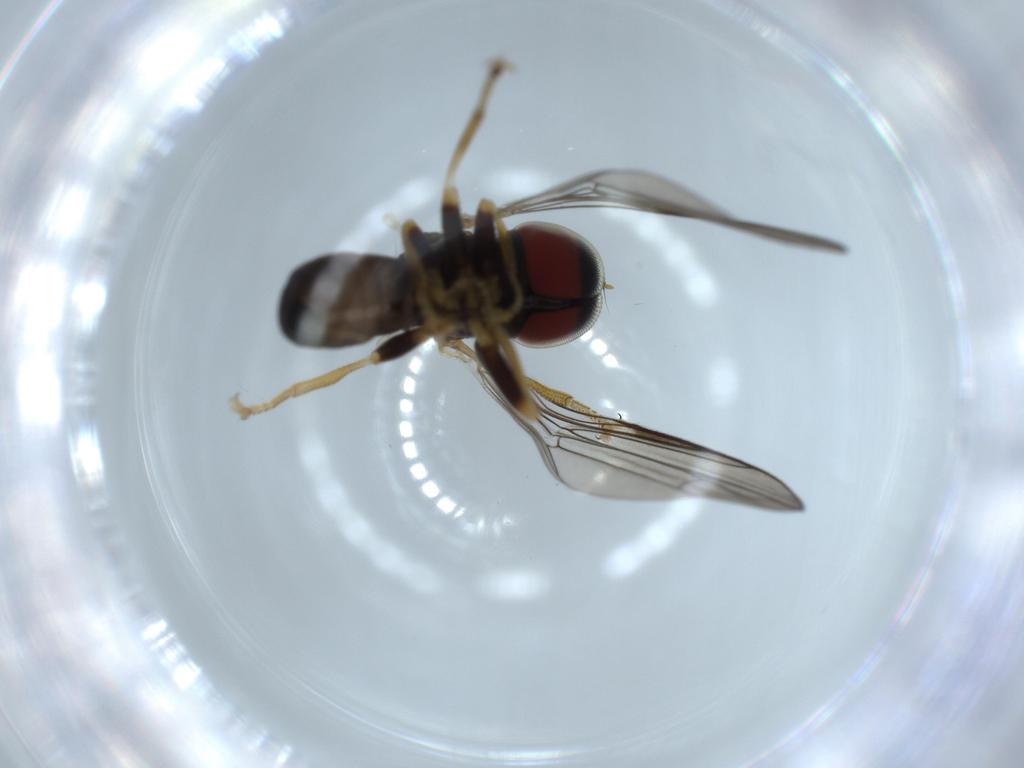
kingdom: Animalia
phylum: Arthropoda
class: Insecta
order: Diptera
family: Pipunculidae
